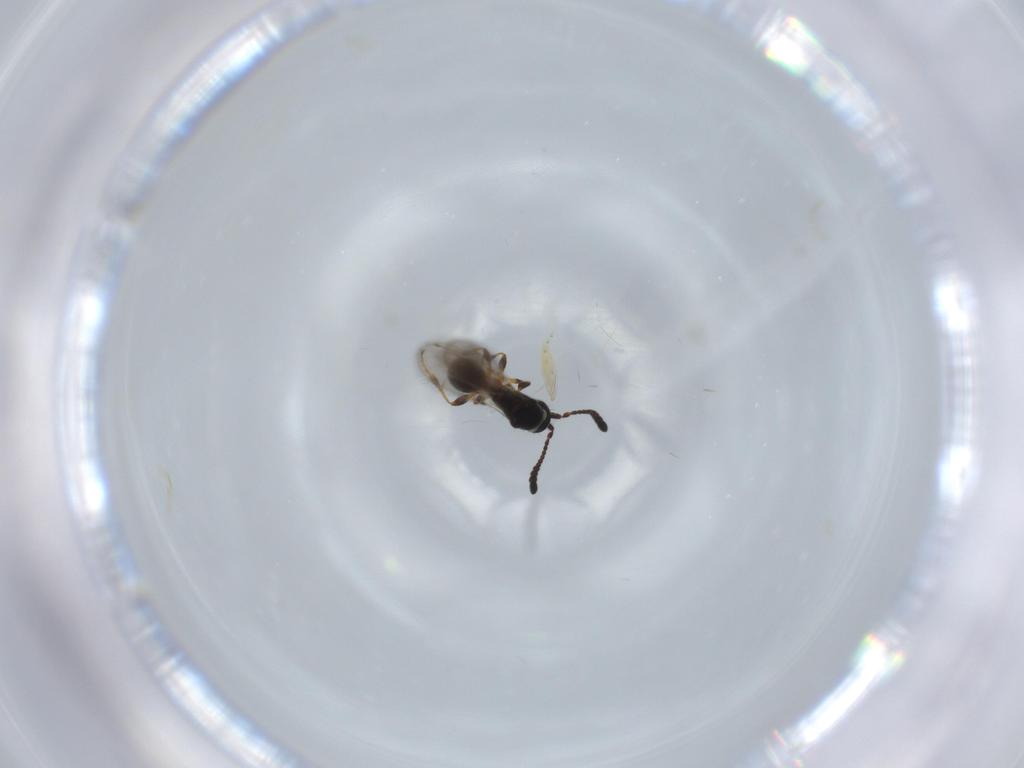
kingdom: Animalia
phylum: Arthropoda
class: Insecta
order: Hymenoptera
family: Diapriidae
